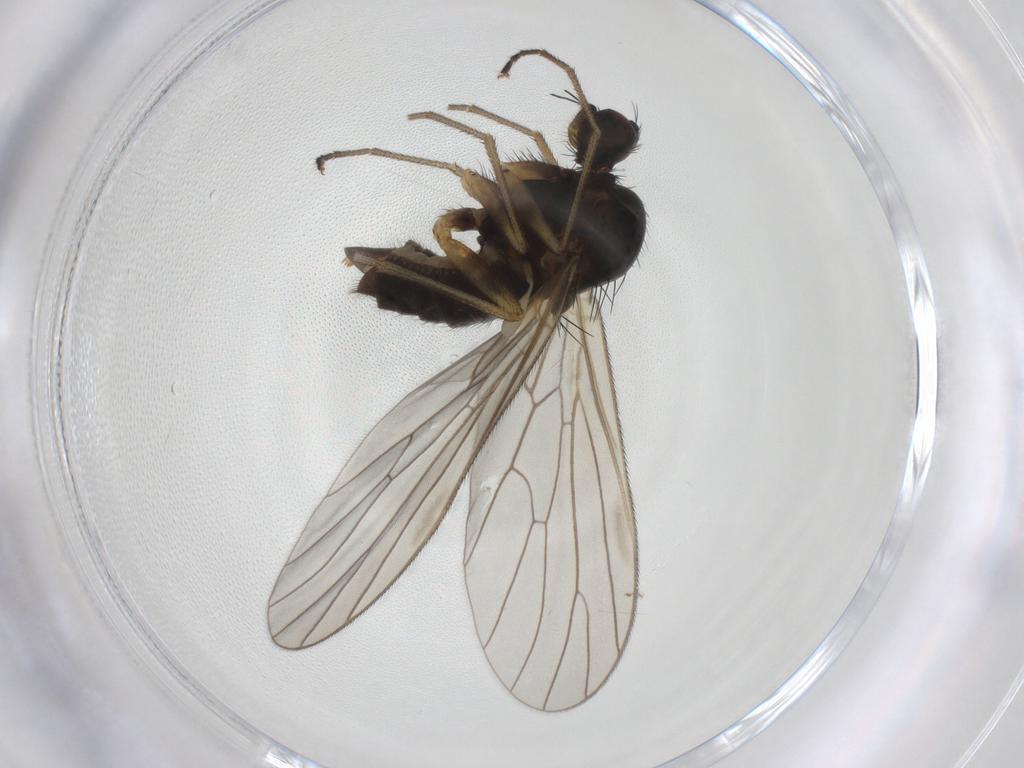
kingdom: Animalia
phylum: Arthropoda
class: Insecta
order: Diptera
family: Brachystomatidae
